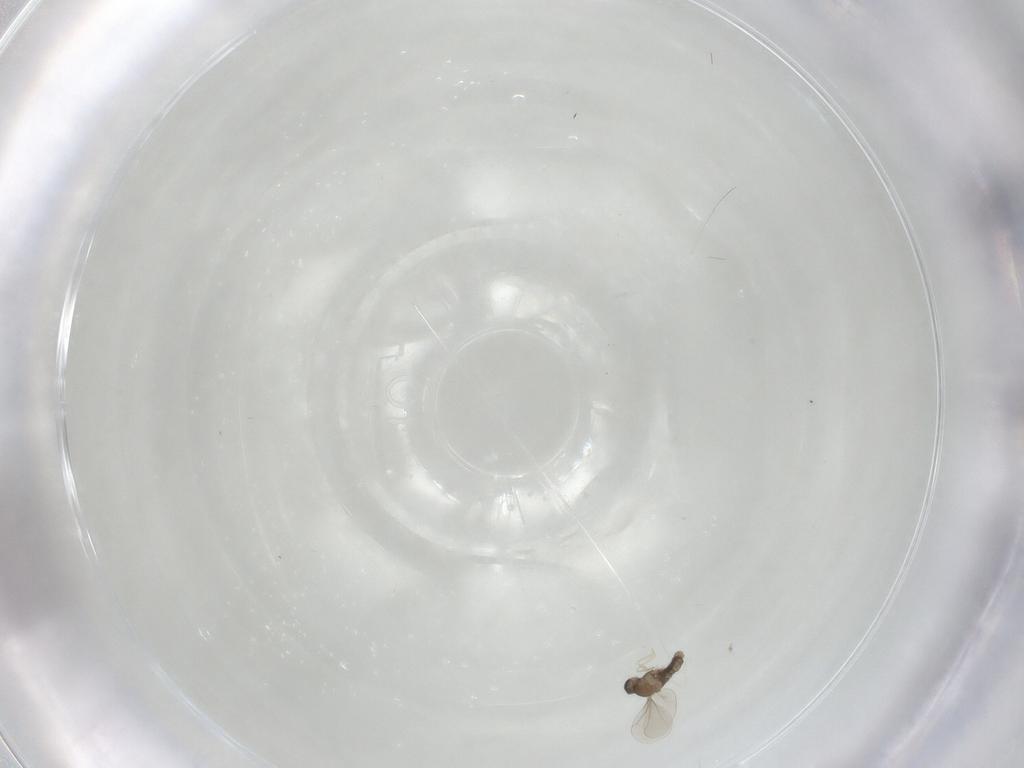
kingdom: Animalia
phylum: Arthropoda
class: Insecta
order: Diptera
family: Cecidomyiidae
